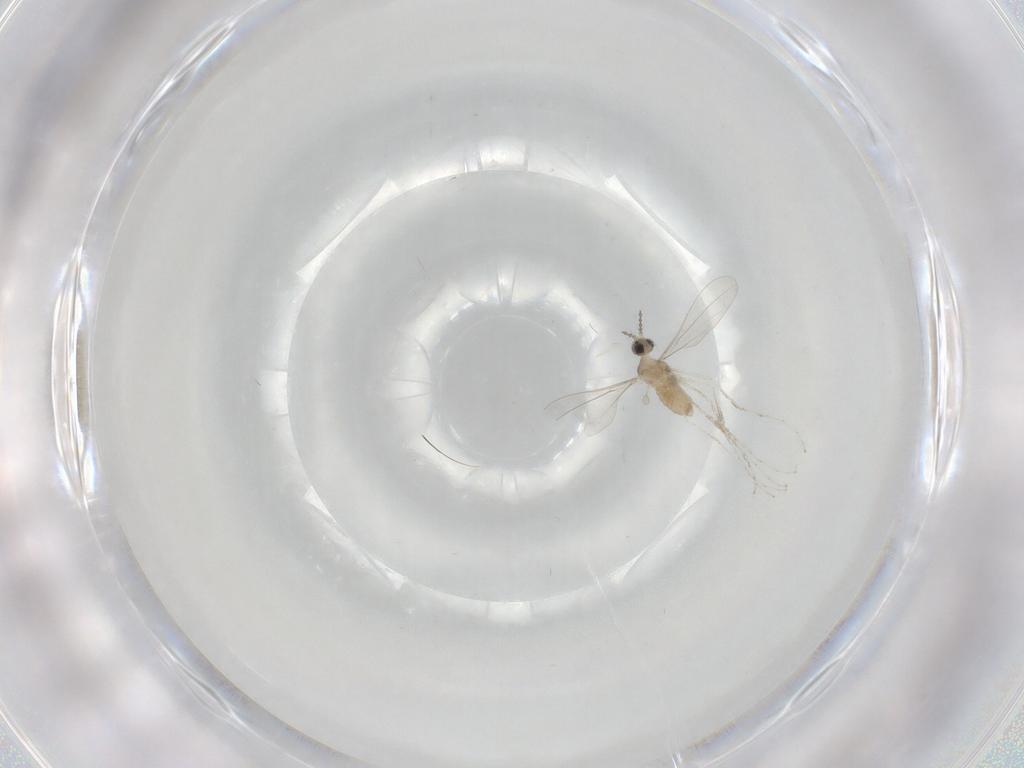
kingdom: Animalia
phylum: Arthropoda
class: Insecta
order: Diptera
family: Cecidomyiidae
